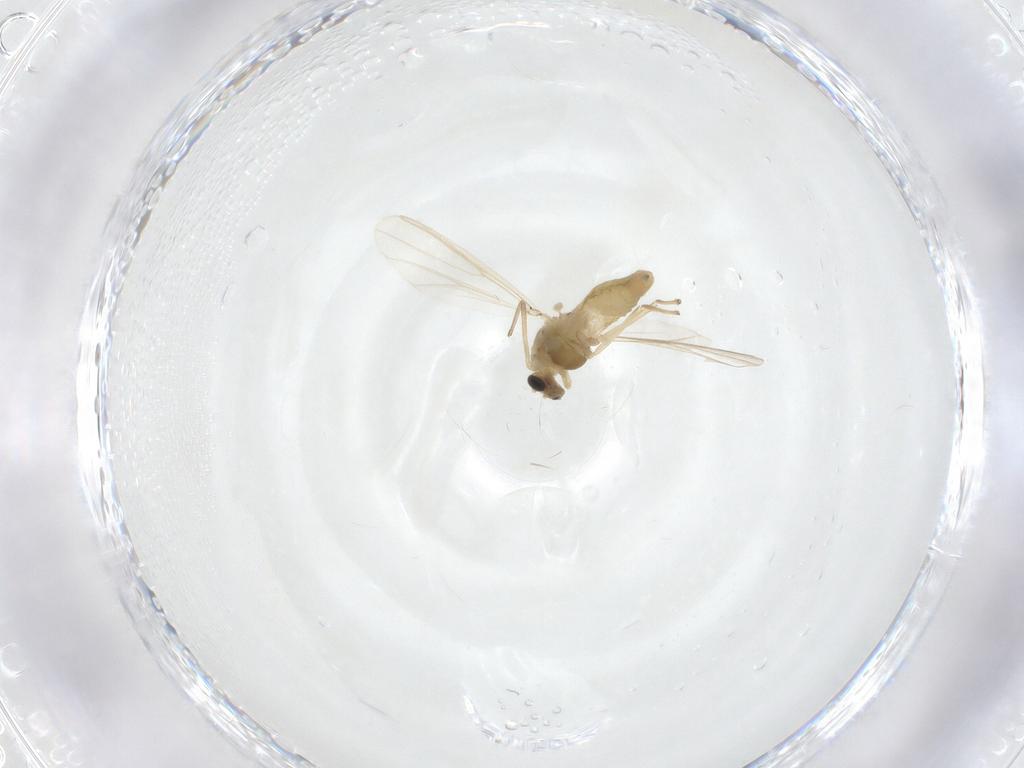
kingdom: Animalia
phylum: Arthropoda
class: Insecta
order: Diptera
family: Chironomidae
